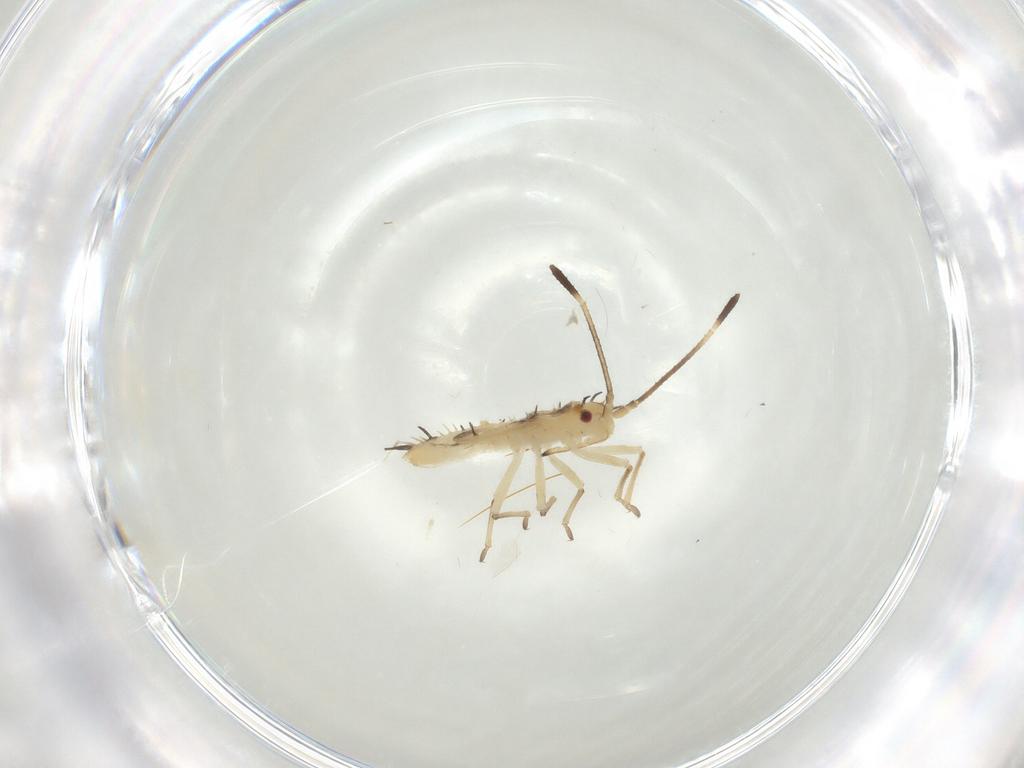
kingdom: Animalia
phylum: Arthropoda
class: Insecta
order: Hemiptera
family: Tingidae
